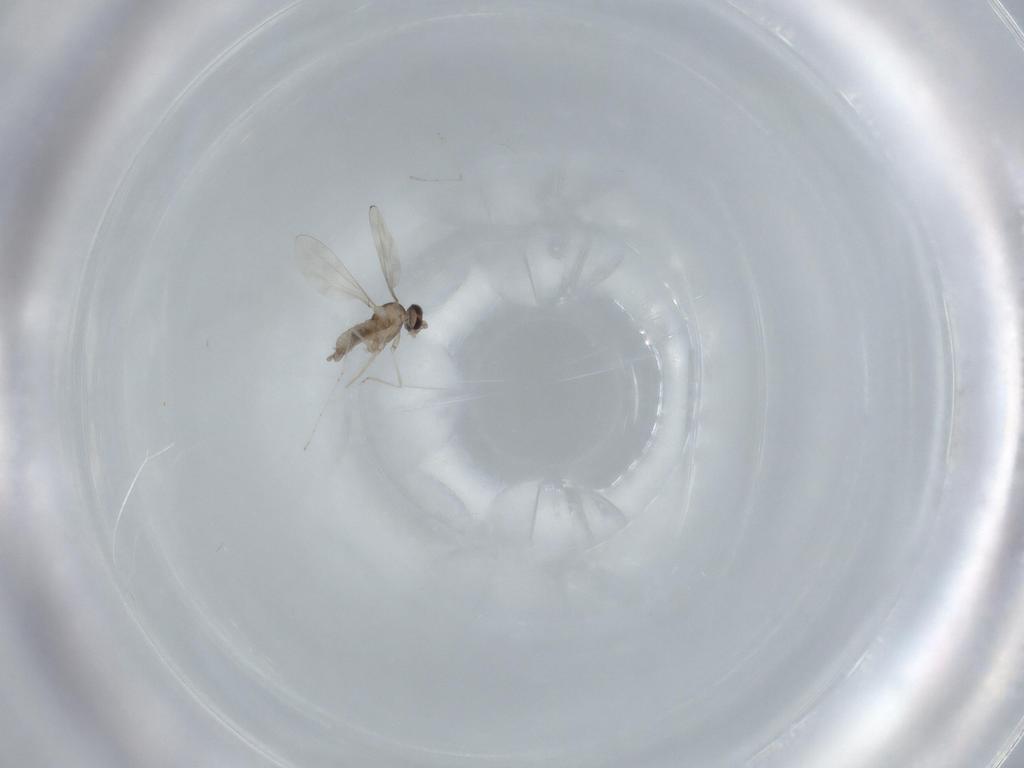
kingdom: Animalia
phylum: Arthropoda
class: Insecta
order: Diptera
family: Cecidomyiidae
